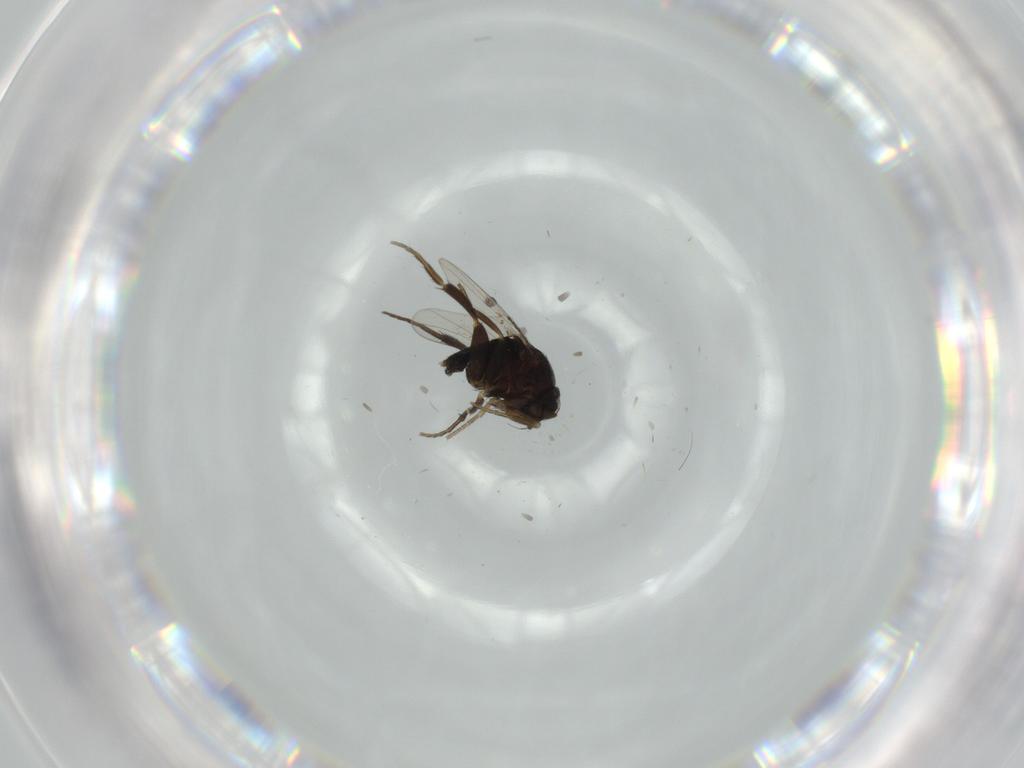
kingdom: Animalia
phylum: Arthropoda
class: Insecta
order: Diptera
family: Phoridae
